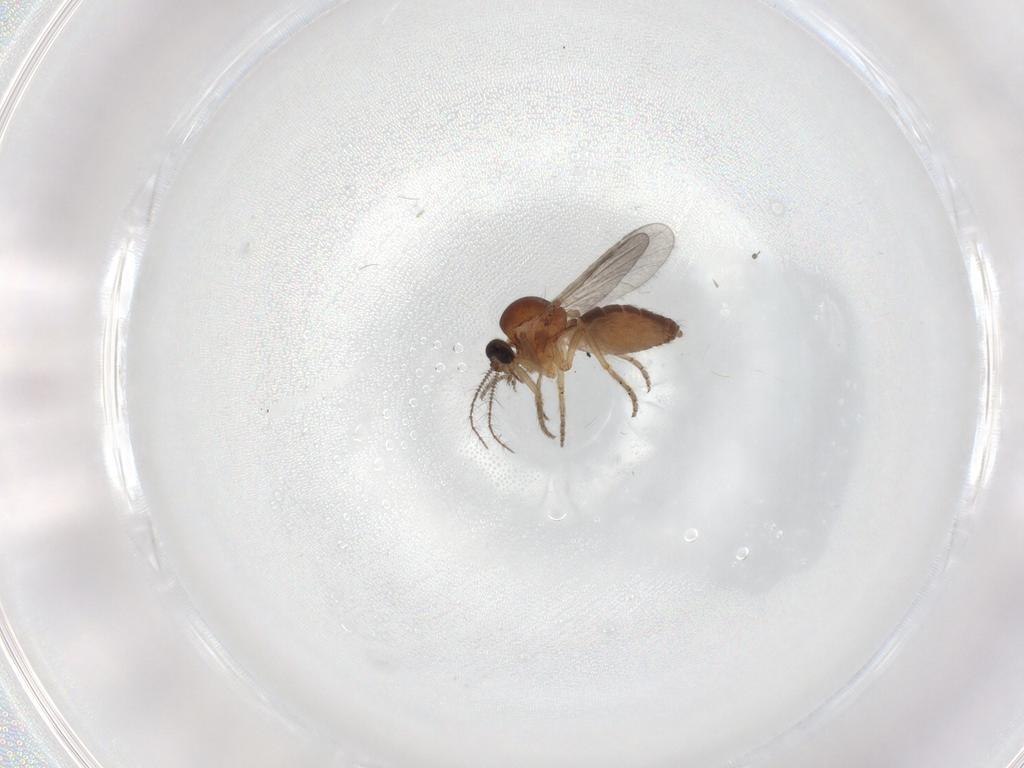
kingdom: Animalia
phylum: Arthropoda
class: Insecta
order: Diptera
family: Ceratopogonidae
